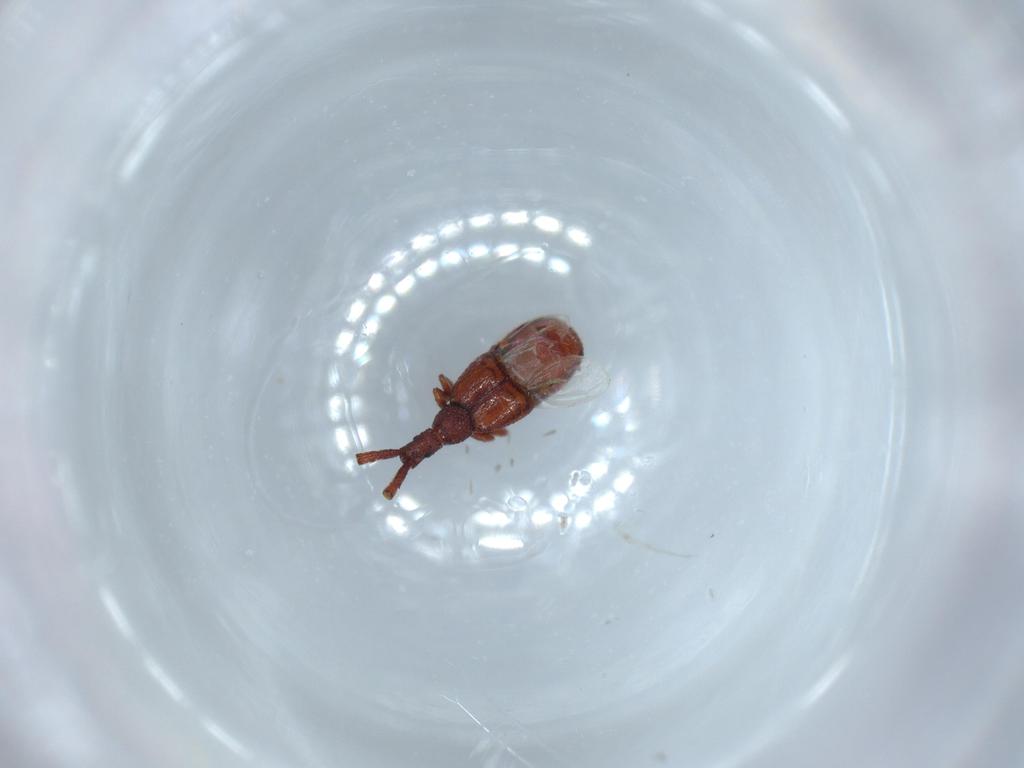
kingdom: Animalia
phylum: Arthropoda
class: Insecta
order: Coleoptera
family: Staphylinidae
